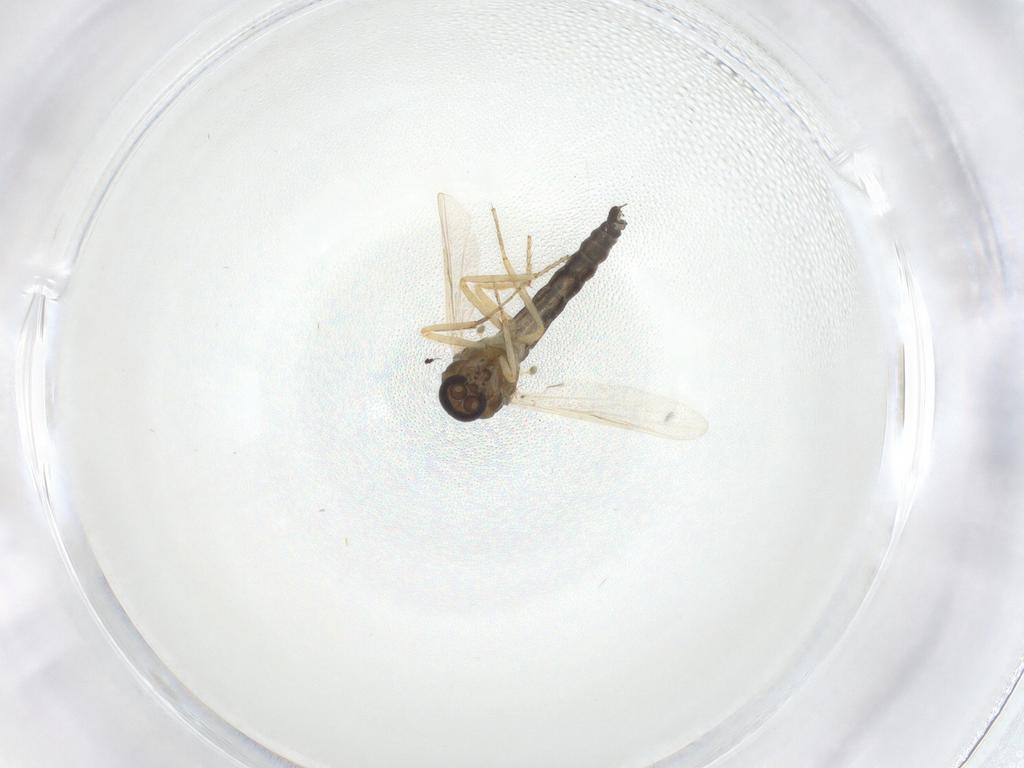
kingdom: Animalia
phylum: Arthropoda
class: Insecta
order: Diptera
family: Ceratopogonidae
